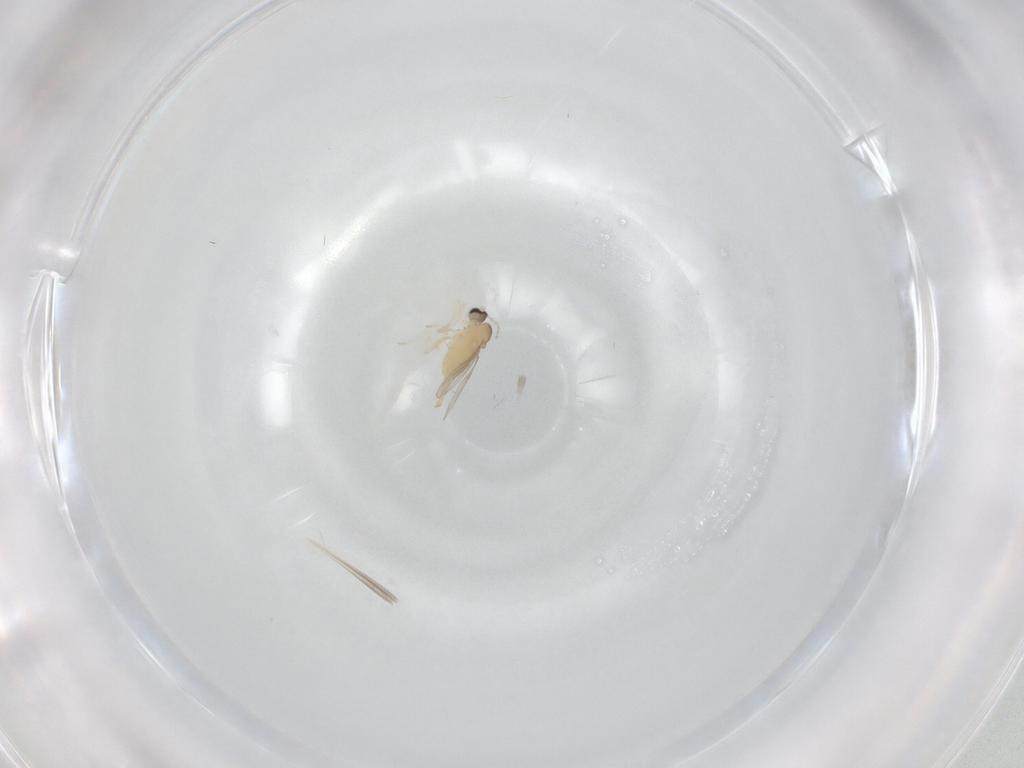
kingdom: Animalia
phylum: Arthropoda
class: Insecta
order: Diptera
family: Cecidomyiidae
